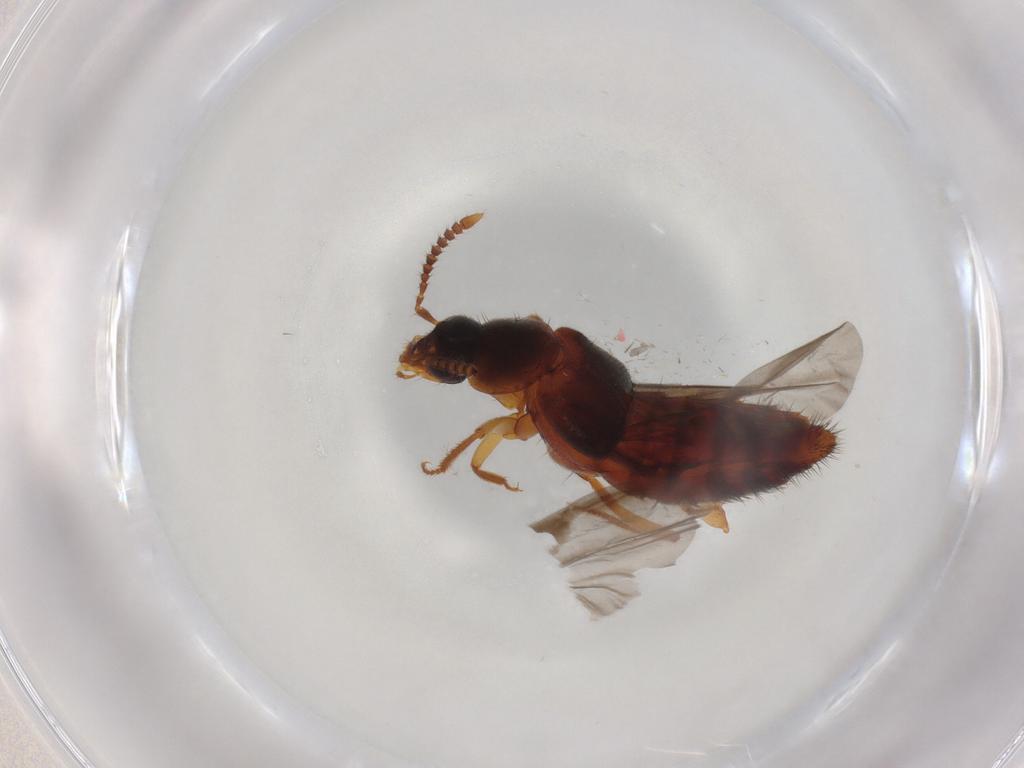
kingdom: Animalia
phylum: Arthropoda
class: Insecta
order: Coleoptera
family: Staphylinidae
